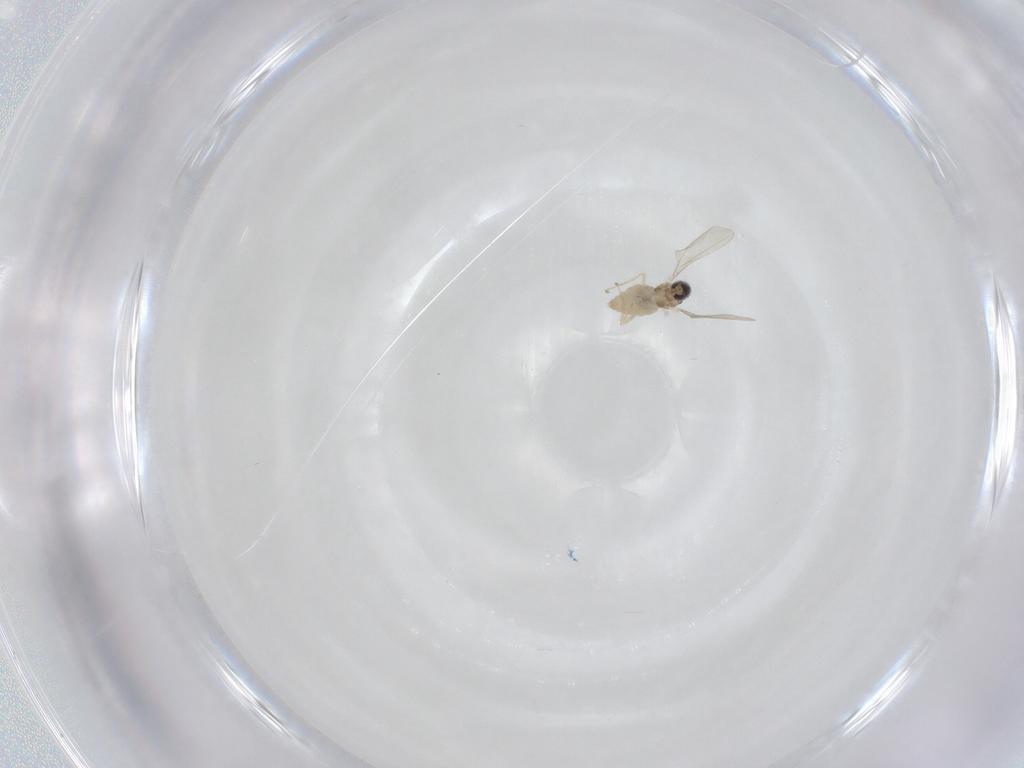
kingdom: Animalia
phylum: Arthropoda
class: Insecta
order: Diptera
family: Cecidomyiidae
